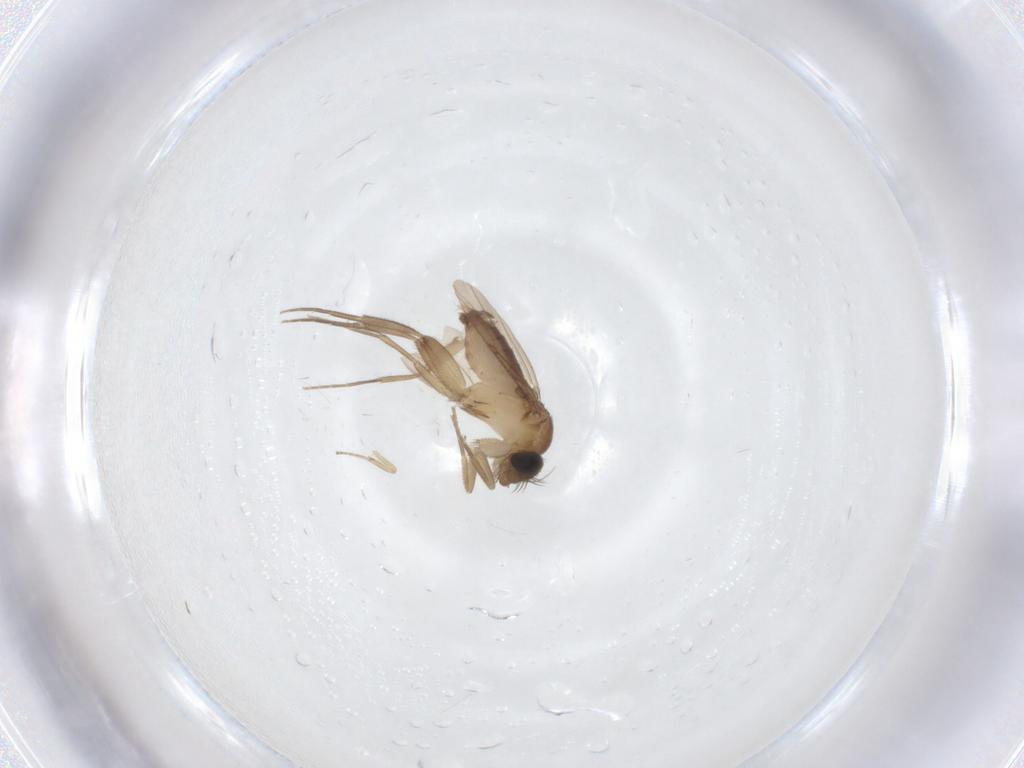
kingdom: Animalia
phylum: Arthropoda
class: Insecta
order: Diptera
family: Phoridae
